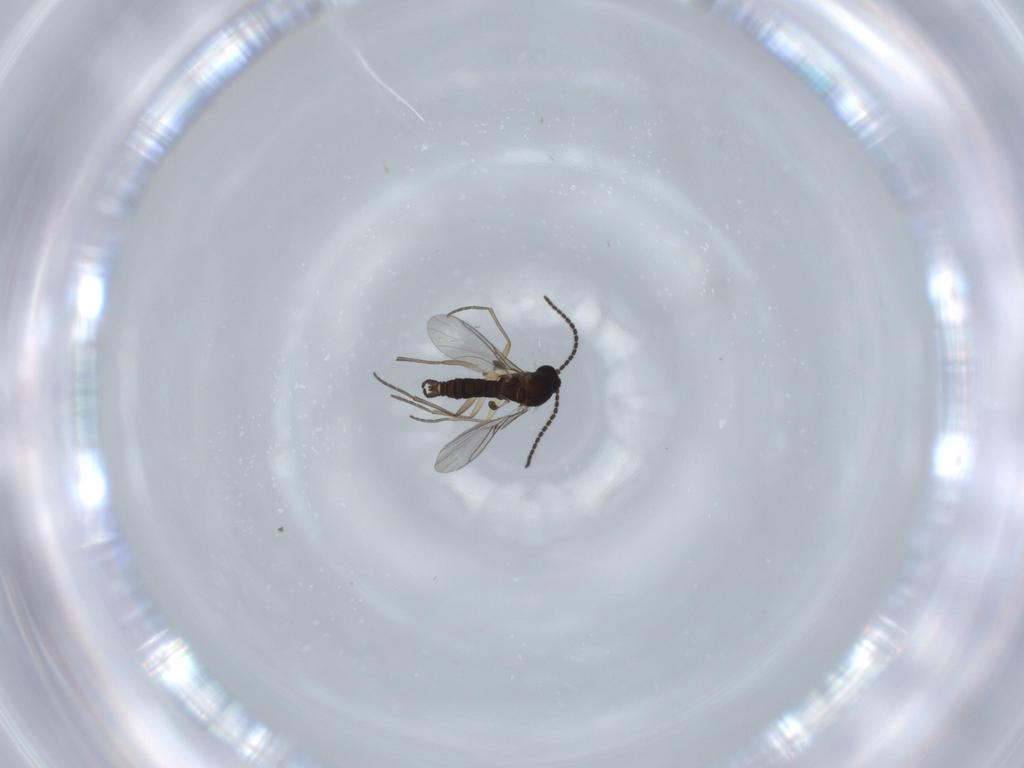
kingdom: Animalia
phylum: Arthropoda
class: Insecta
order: Diptera
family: Sciaridae
